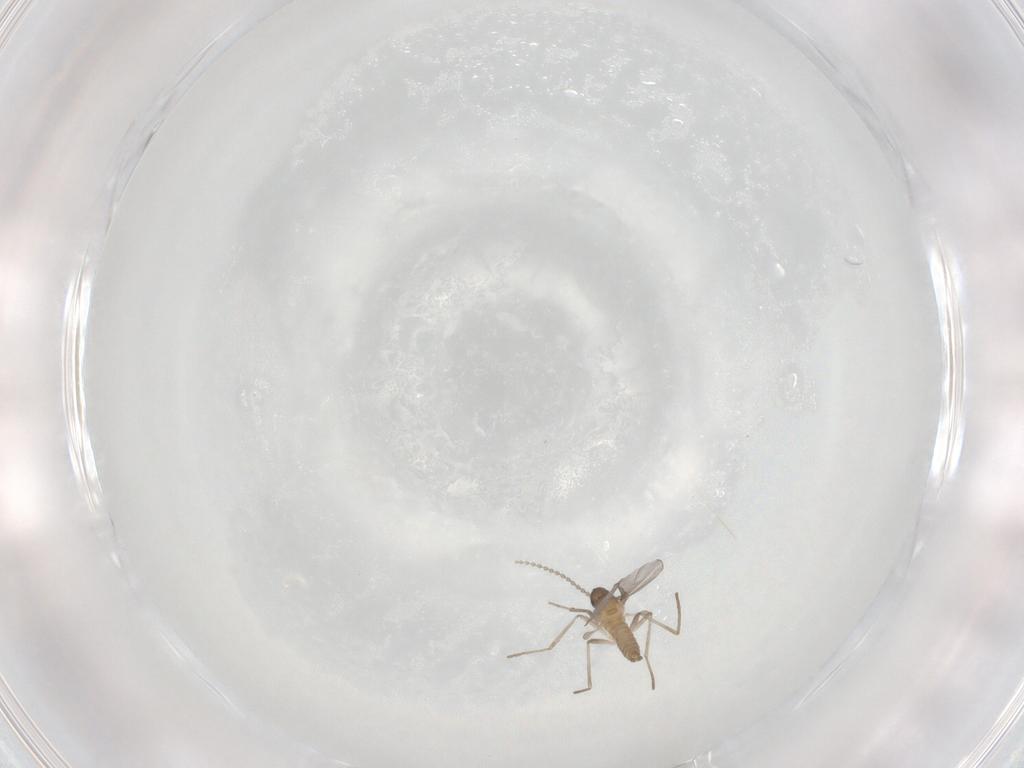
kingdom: Animalia
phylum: Arthropoda
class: Insecta
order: Diptera
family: Cecidomyiidae
